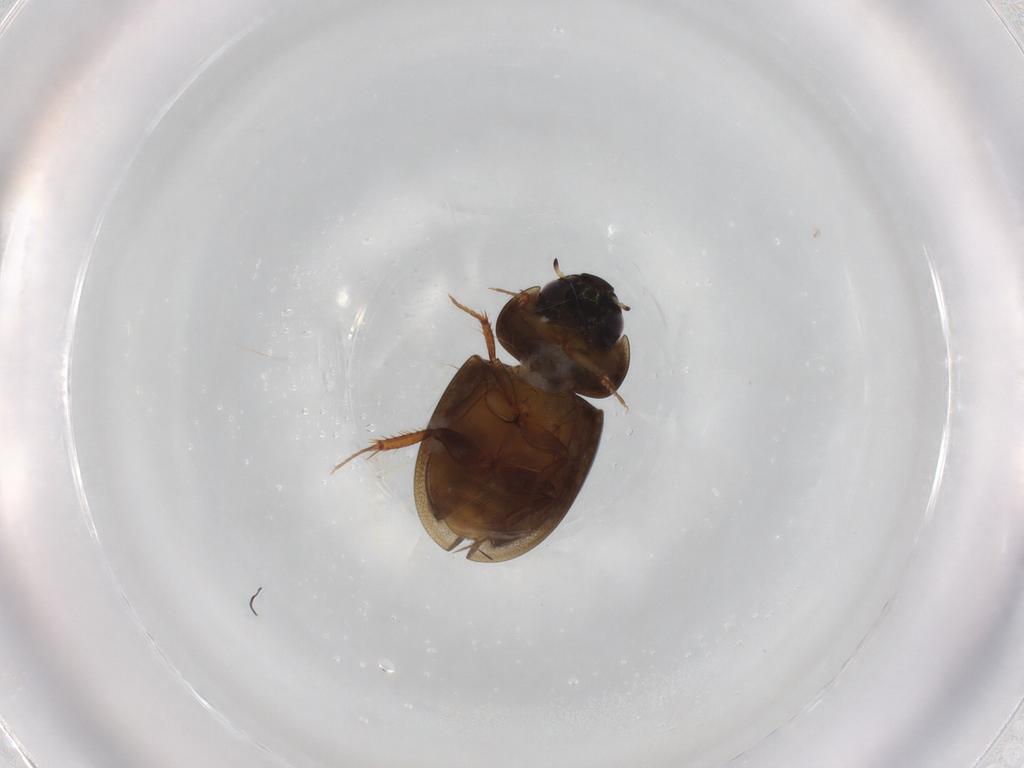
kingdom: Animalia
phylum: Arthropoda
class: Insecta
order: Coleoptera
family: Hydrophilidae
